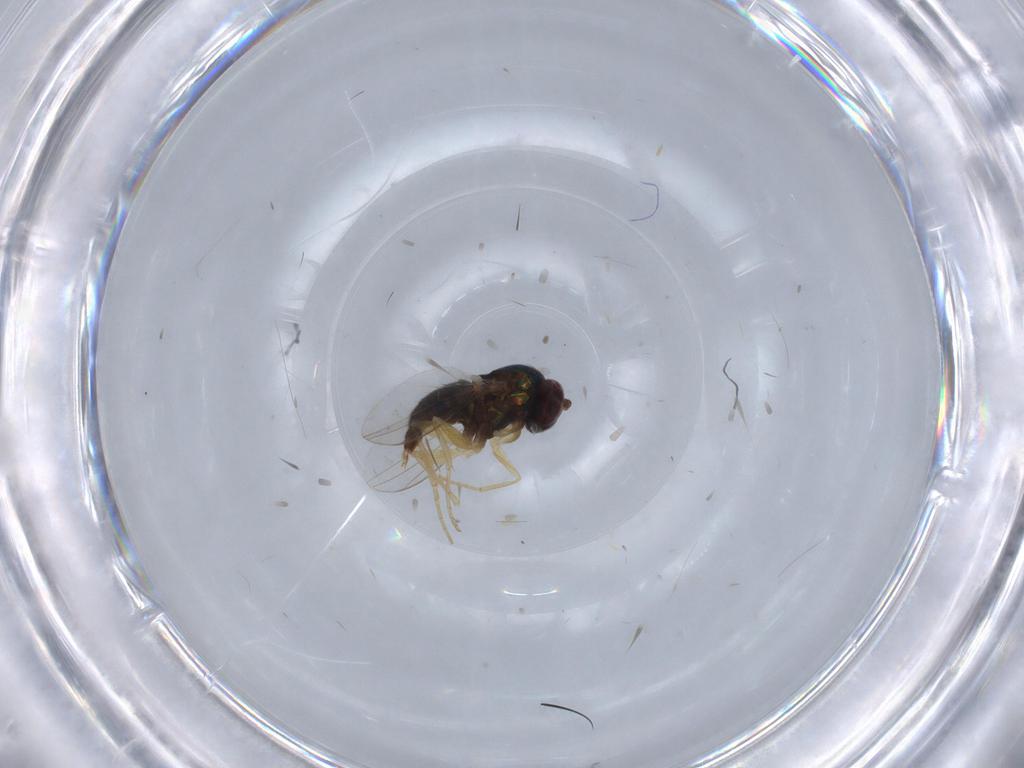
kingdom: Animalia
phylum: Arthropoda
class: Insecta
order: Diptera
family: Dolichopodidae
